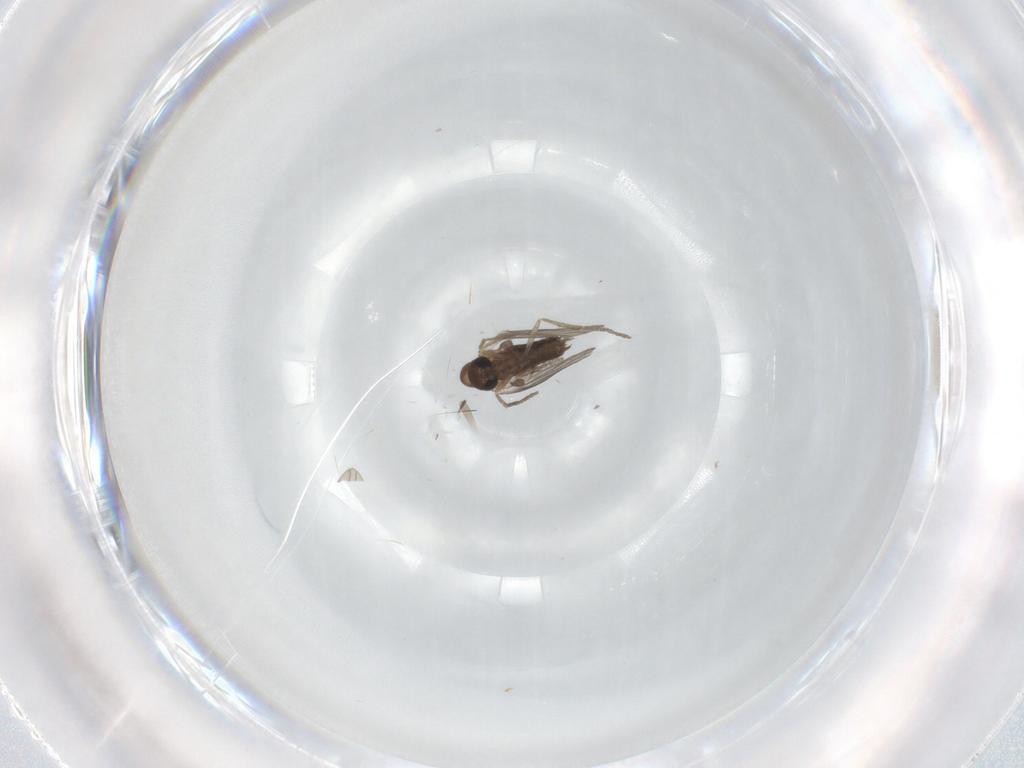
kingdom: Animalia
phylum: Arthropoda
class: Insecta
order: Diptera
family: Psychodidae
